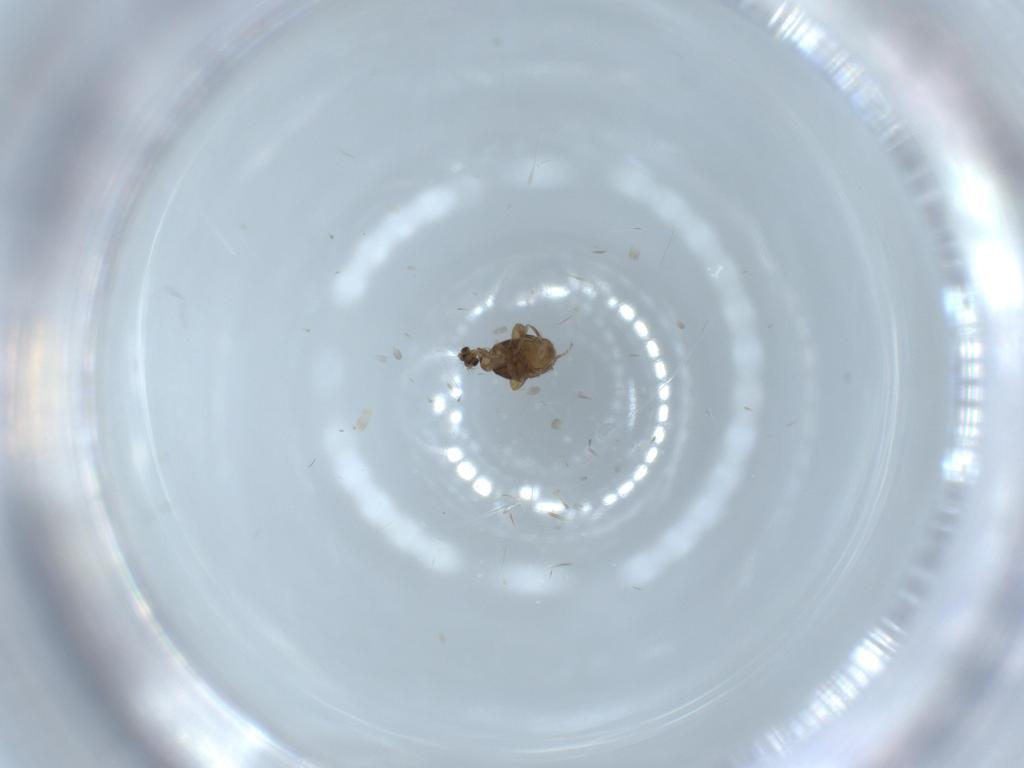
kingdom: Animalia
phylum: Arthropoda
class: Insecta
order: Diptera
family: Phoridae
